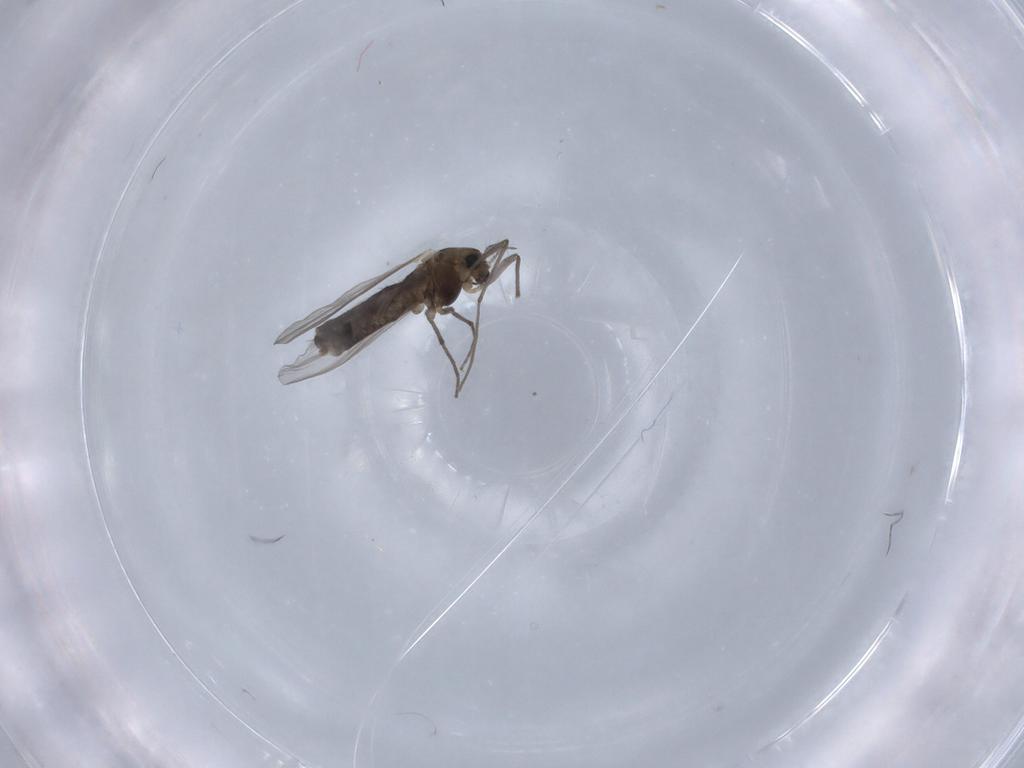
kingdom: Animalia
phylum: Arthropoda
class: Insecta
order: Diptera
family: Chironomidae
